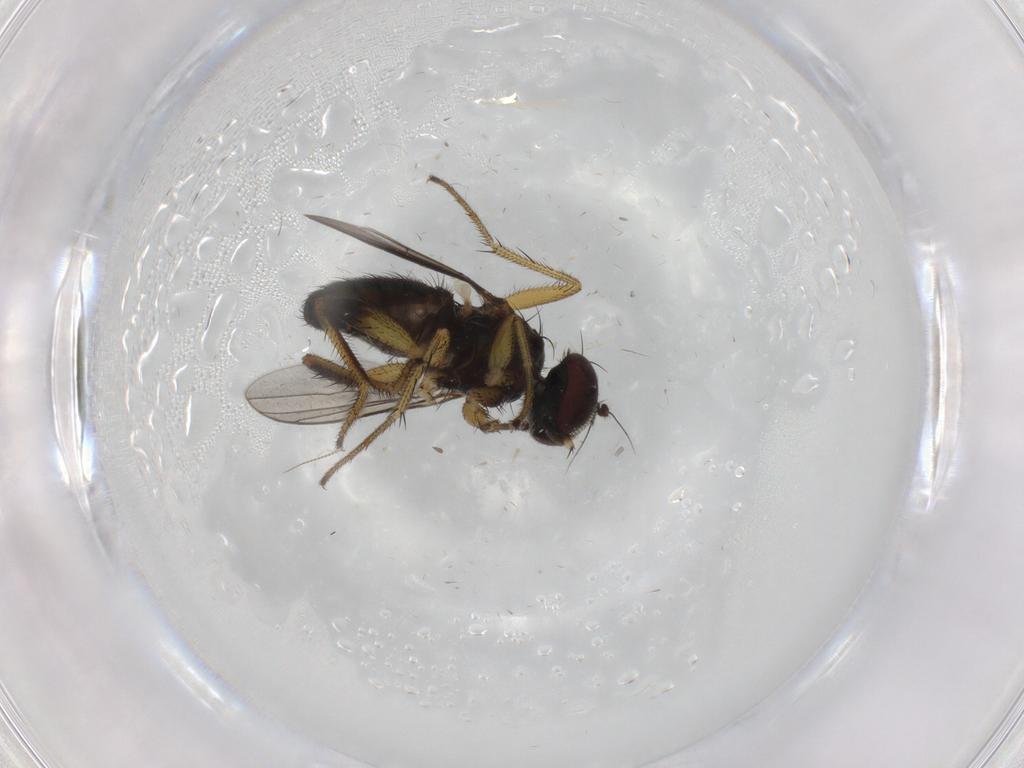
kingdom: Animalia
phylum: Arthropoda
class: Insecta
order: Diptera
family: Dolichopodidae
